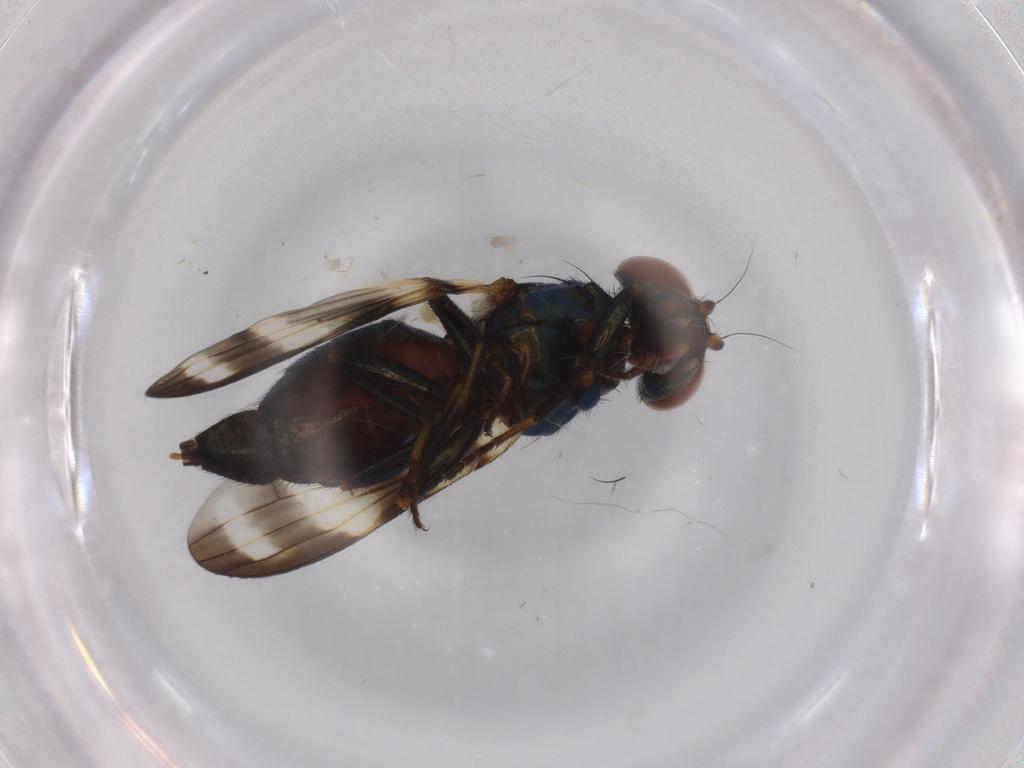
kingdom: Animalia
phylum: Arthropoda
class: Insecta
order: Diptera
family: Ulidiidae
